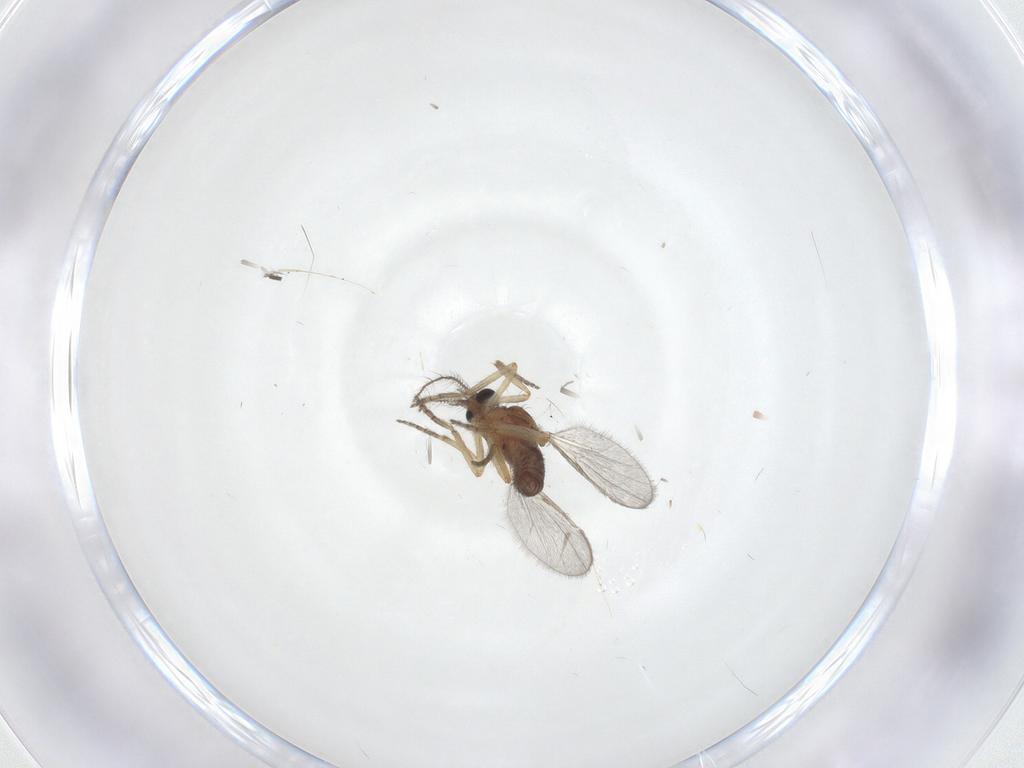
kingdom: Animalia
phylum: Arthropoda
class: Insecta
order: Diptera
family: Ceratopogonidae
